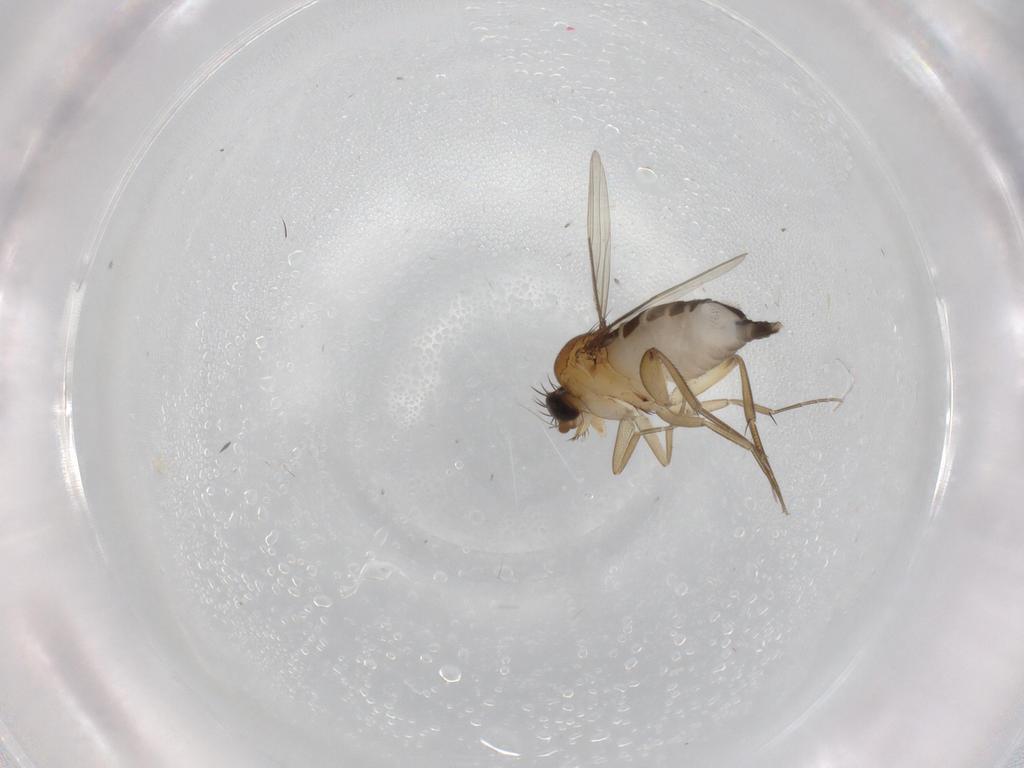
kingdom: Animalia
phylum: Arthropoda
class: Insecta
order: Diptera
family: Phoridae
